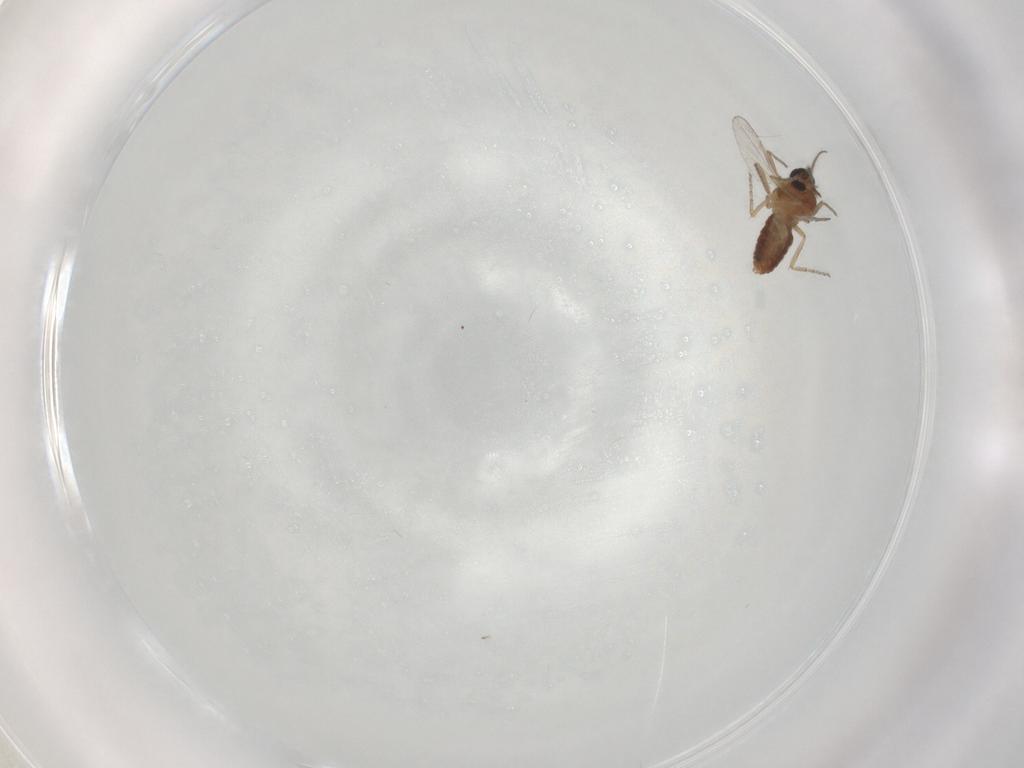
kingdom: Animalia
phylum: Arthropoda
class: Insecta
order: Diptera
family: Ceratopogonidae
